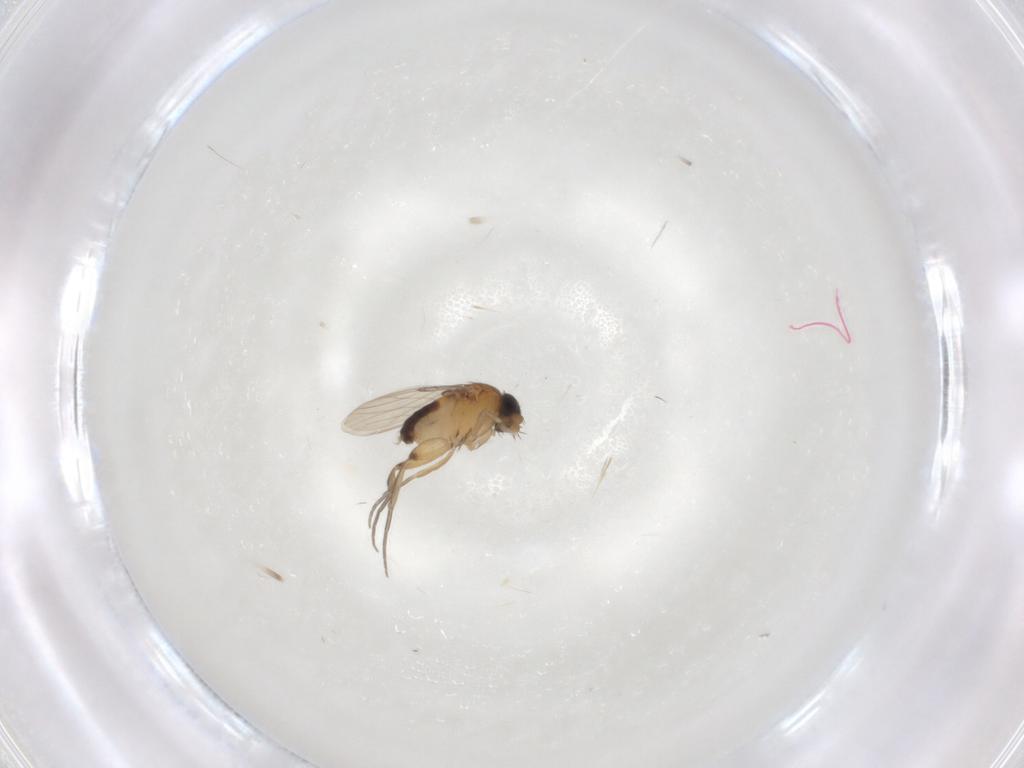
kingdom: Animalia
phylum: Arthropoda
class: Insecta
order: Diptera
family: Phoridae
